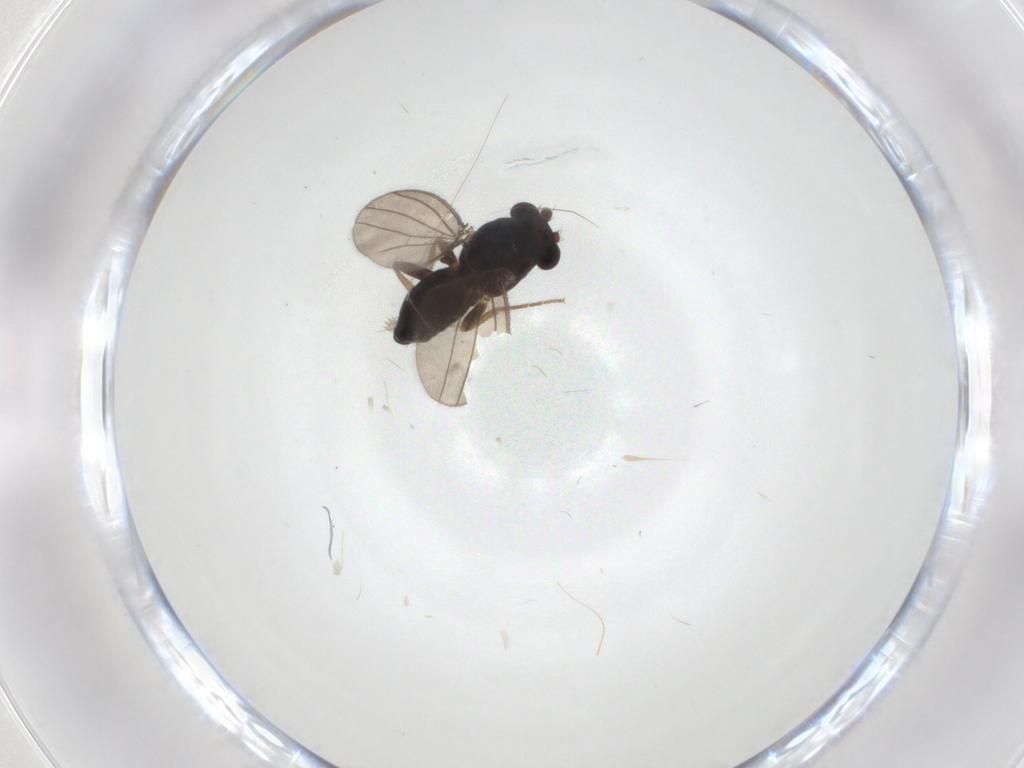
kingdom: Animalia
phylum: Arthropoda
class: Insecta
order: Diptera
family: Inbiomyiidae
